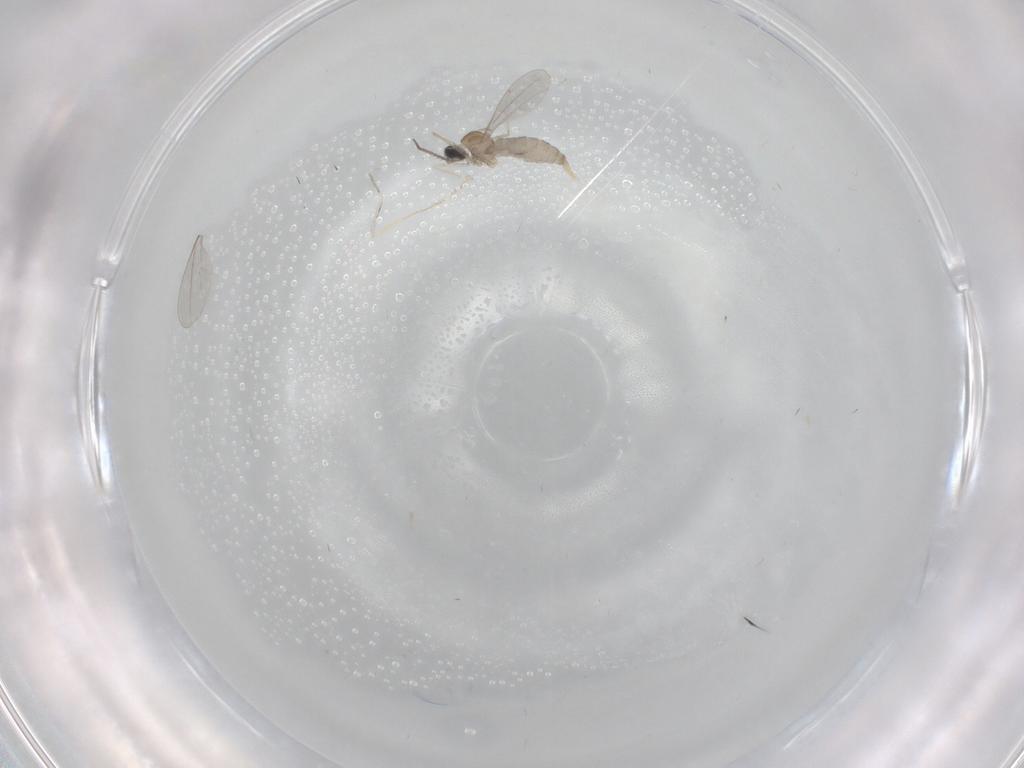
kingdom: Animalia
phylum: Arthropoda
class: Insecta
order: Diptera
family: Cecidomyiidae
